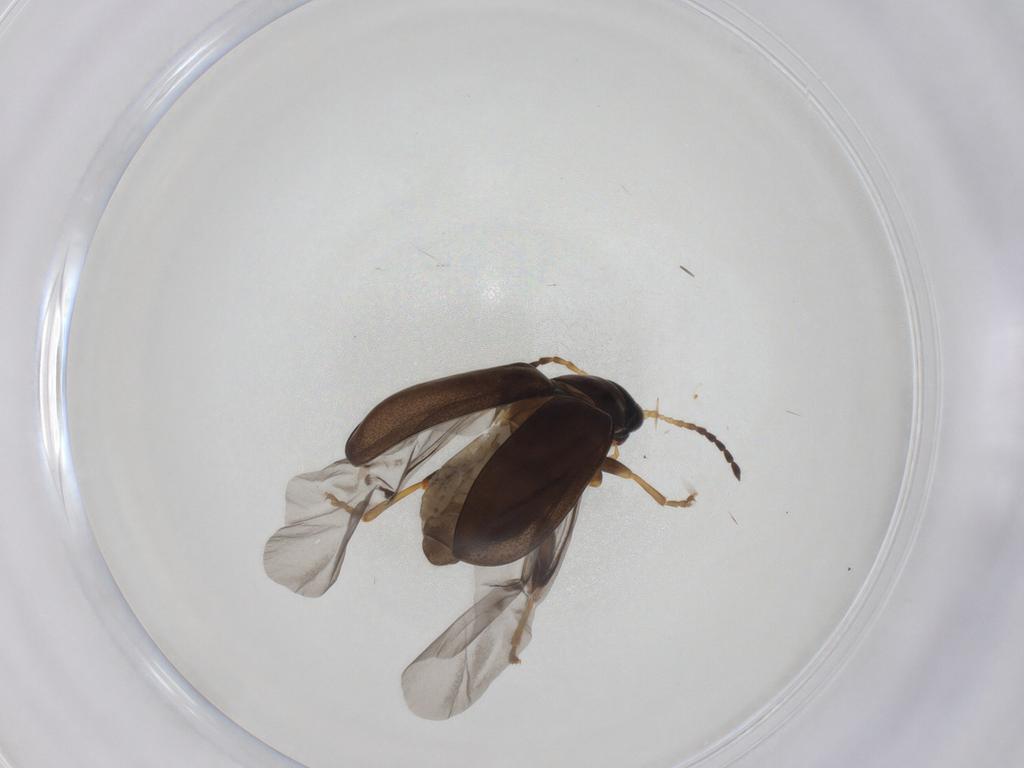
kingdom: Animalia
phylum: Arthropoda
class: Insecta
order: Coleoptera
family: Chrysomelidae
